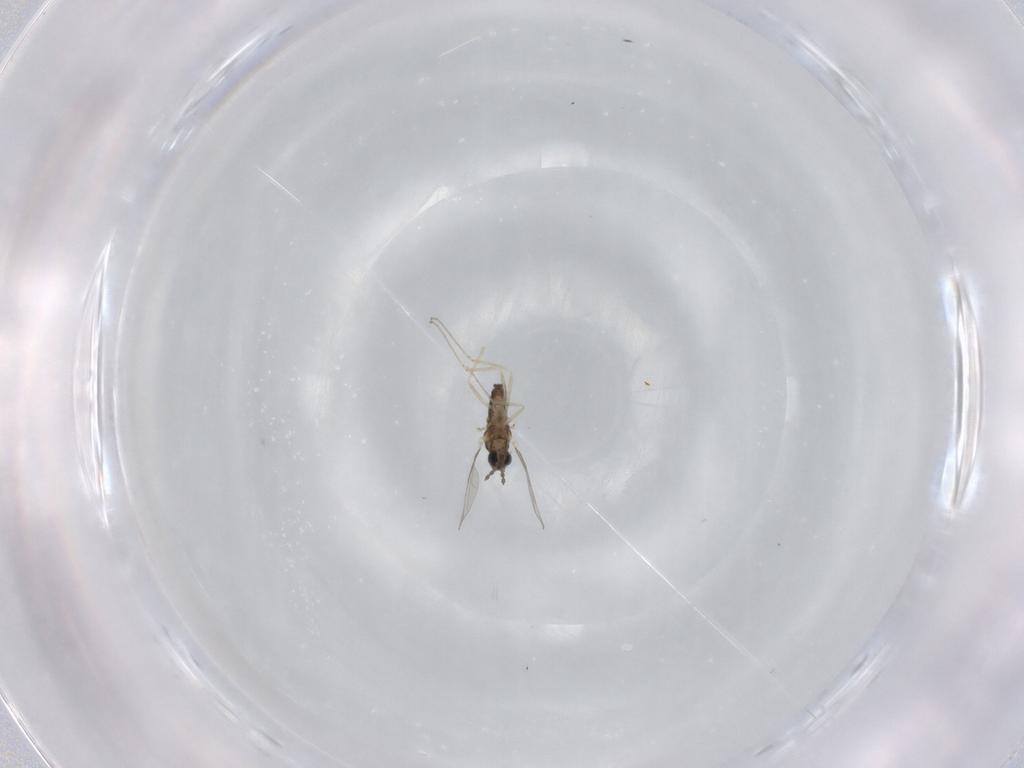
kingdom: Animalia
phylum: Arthropoda
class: Insecta
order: Diptera
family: Cecidomyiidae
